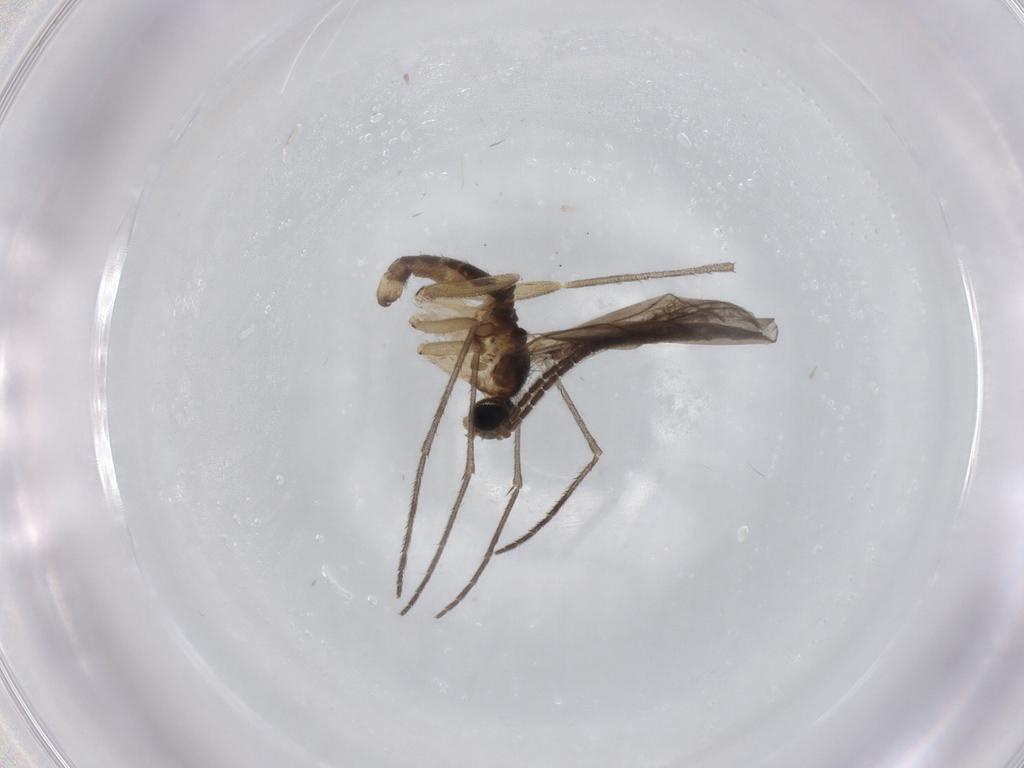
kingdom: Animalia
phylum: Arthropoda
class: Insecta
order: Diptera
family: Sciaridae
